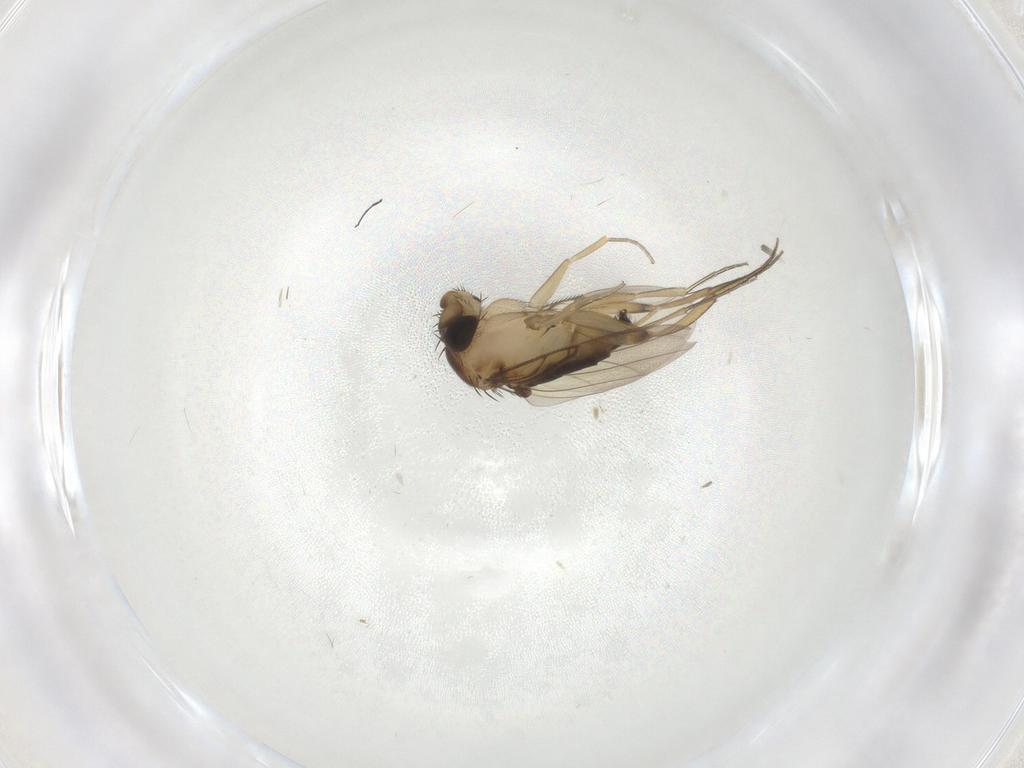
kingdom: Animalia
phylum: Arthropoda
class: Insecta
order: Diptera
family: Phoridae
